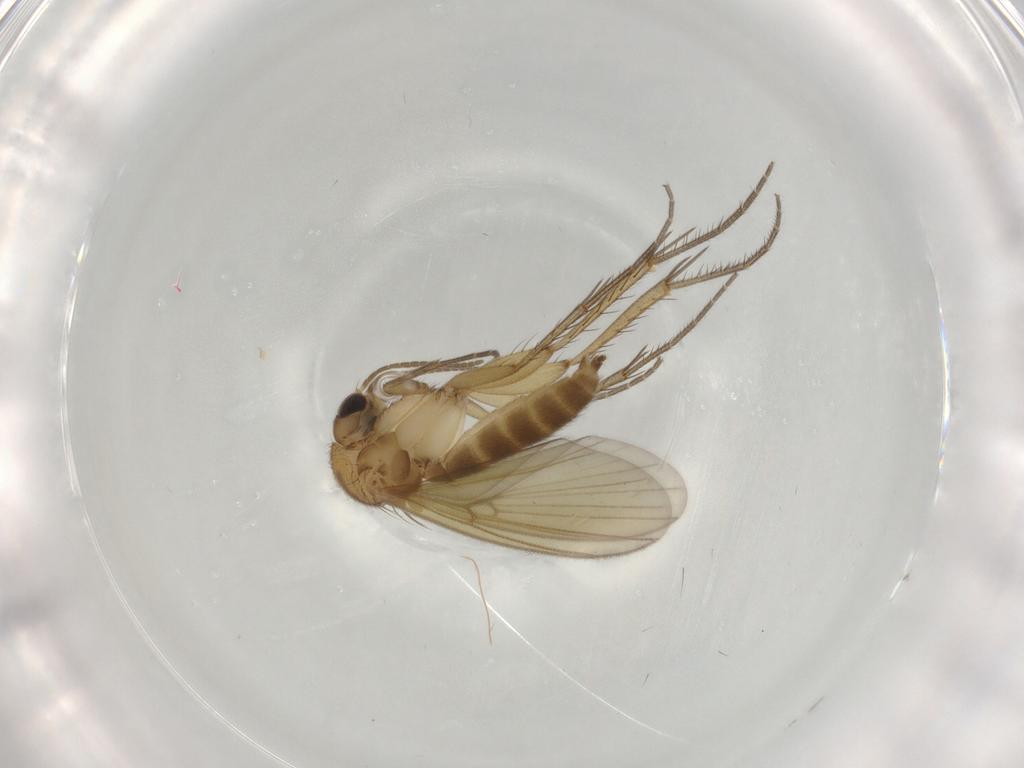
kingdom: Animalia
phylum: Arthropoda
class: Insecta
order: Diptera
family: Mycetophilidae
